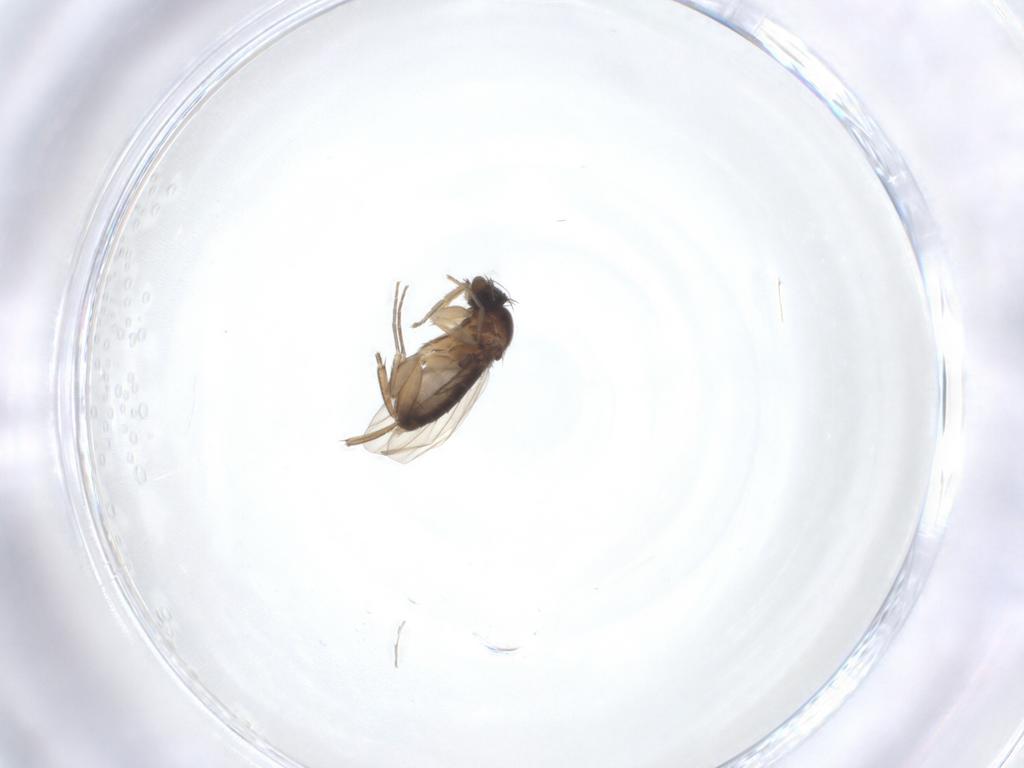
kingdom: Animalia
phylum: Arthropoda
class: Insecta
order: Diptera
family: Phoridae
